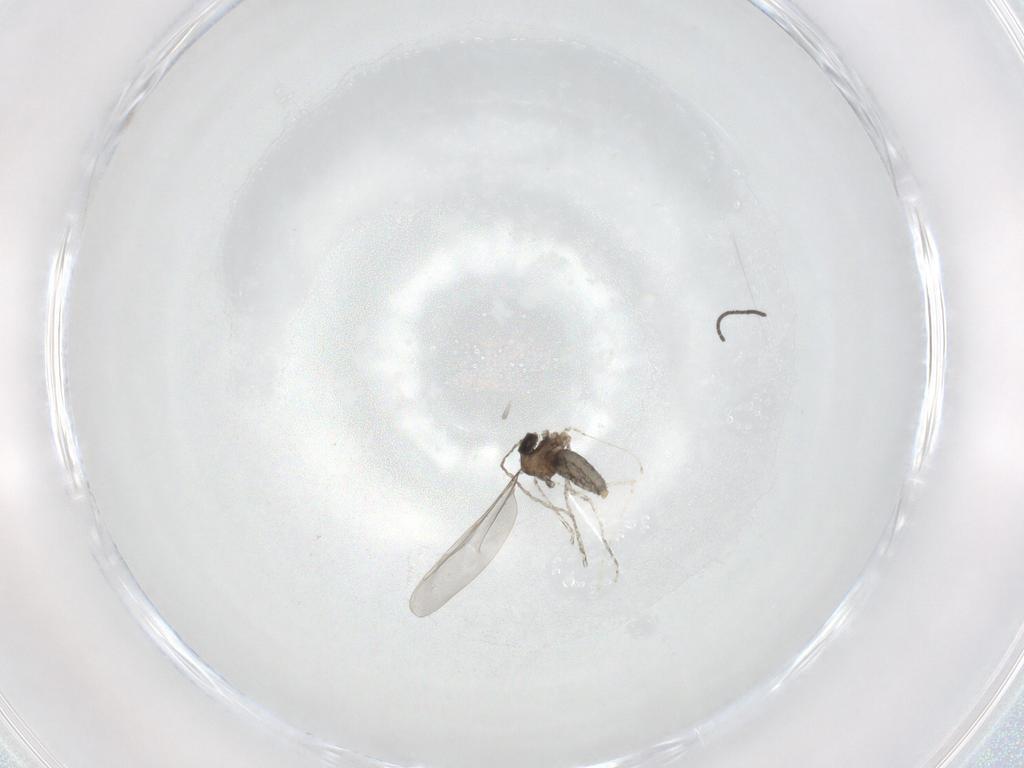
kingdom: Animalia
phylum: Arthropoda
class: Insecta
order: Diptera
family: Cecidomyiidae
